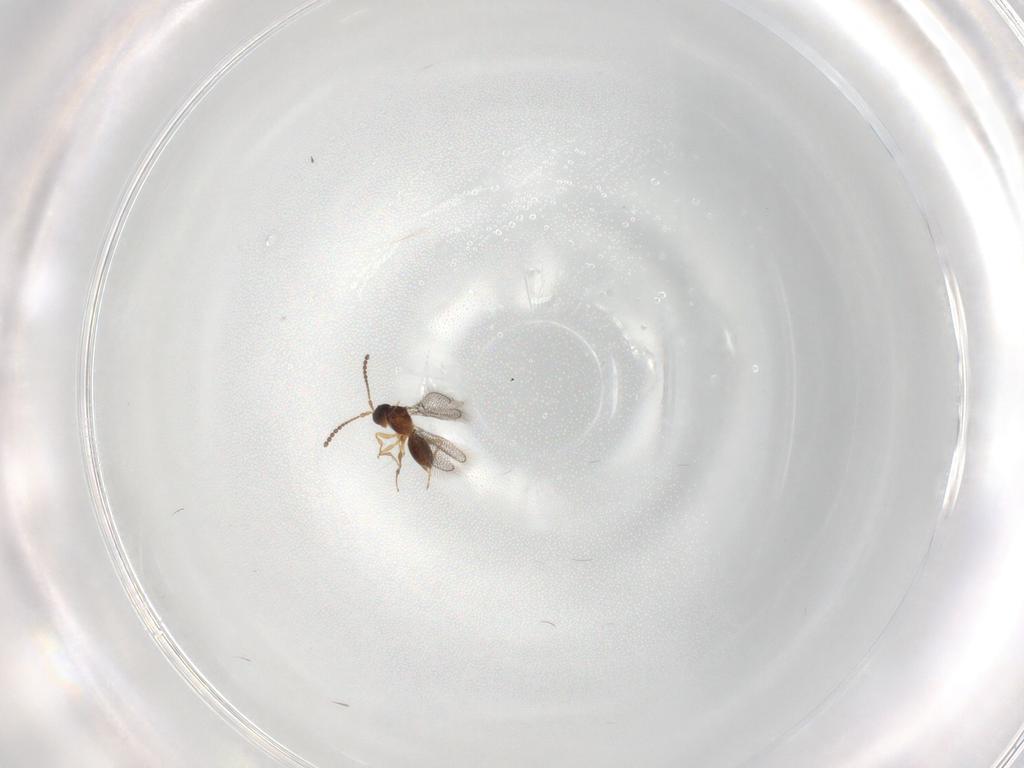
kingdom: Animalia
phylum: Arthropoda
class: Insecta
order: Hymenoptera
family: Figitidae
